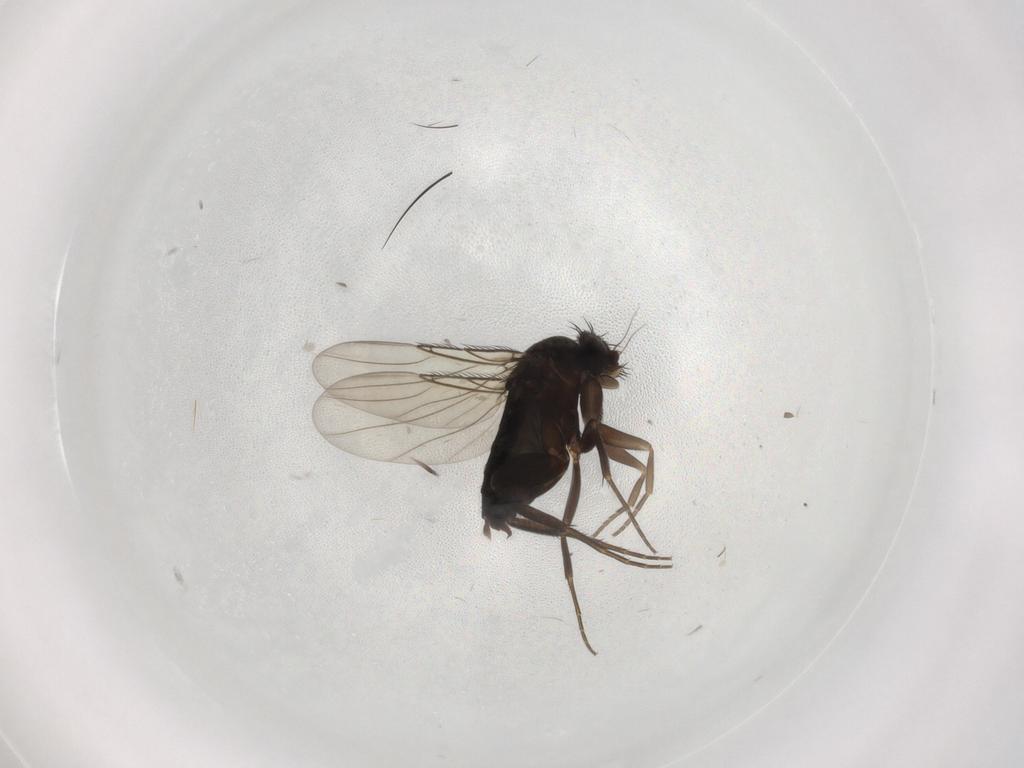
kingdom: Animalia
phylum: Arthropoda
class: Insecta
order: Diptera
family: Phoridae
